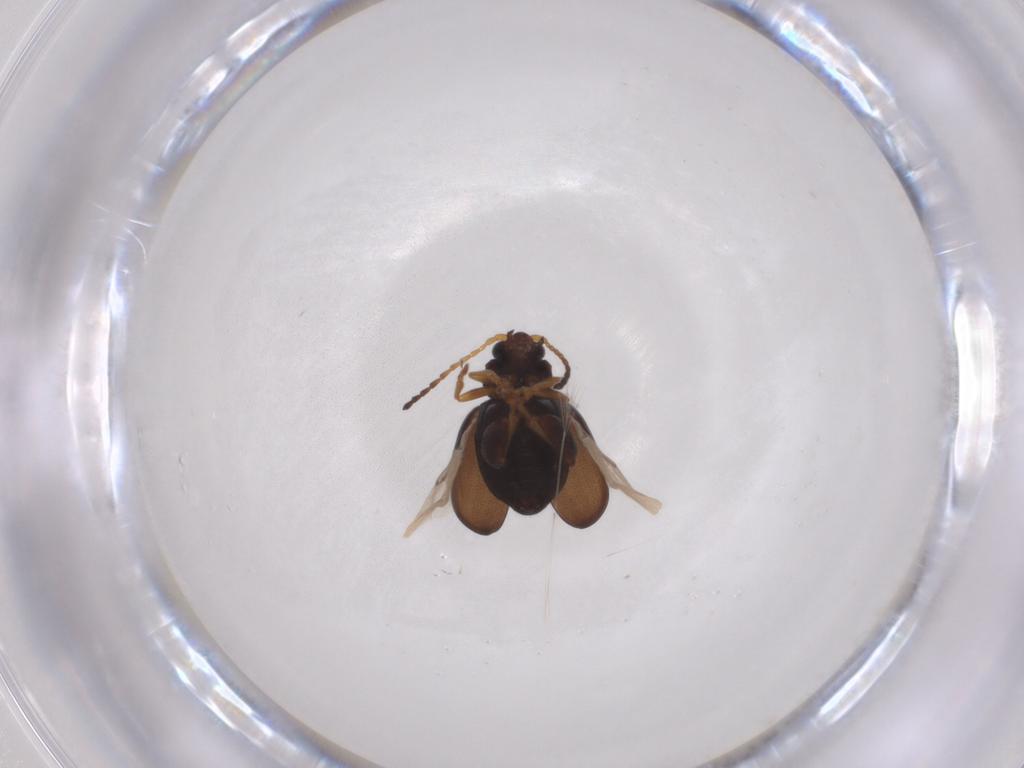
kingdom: Animalia
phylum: Arthropoda
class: Insecta
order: Coleoptera
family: Chrysomelidae
